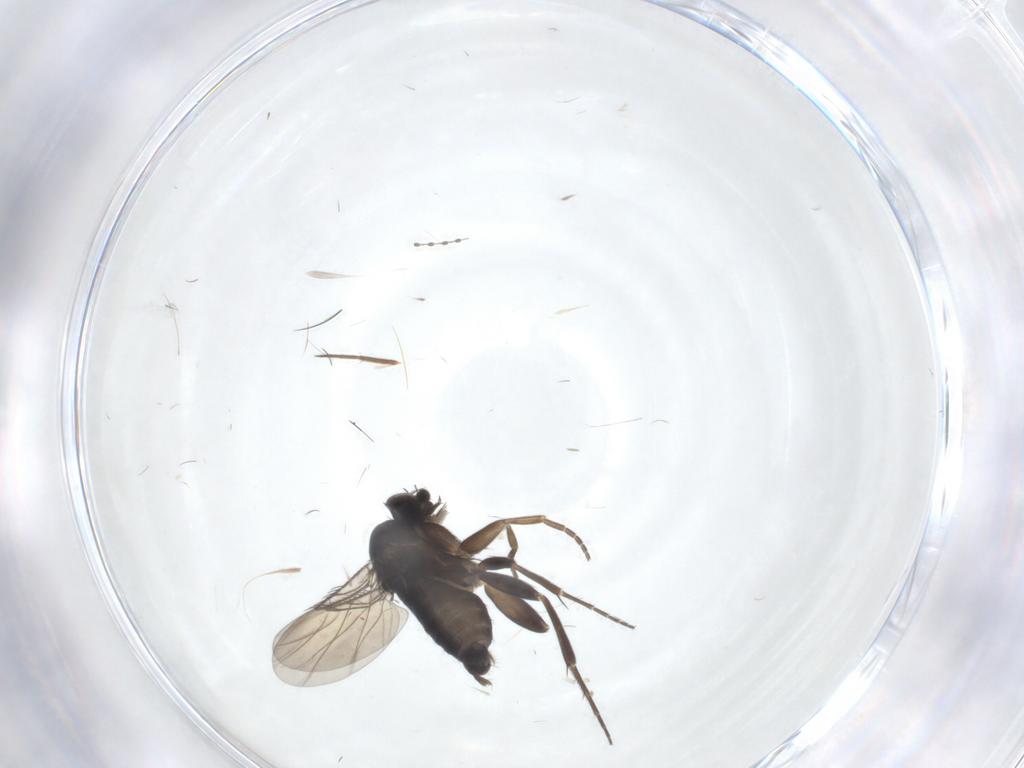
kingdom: Animalia
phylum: Arthropoda
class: Insecta
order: Diptera
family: Phoridae
